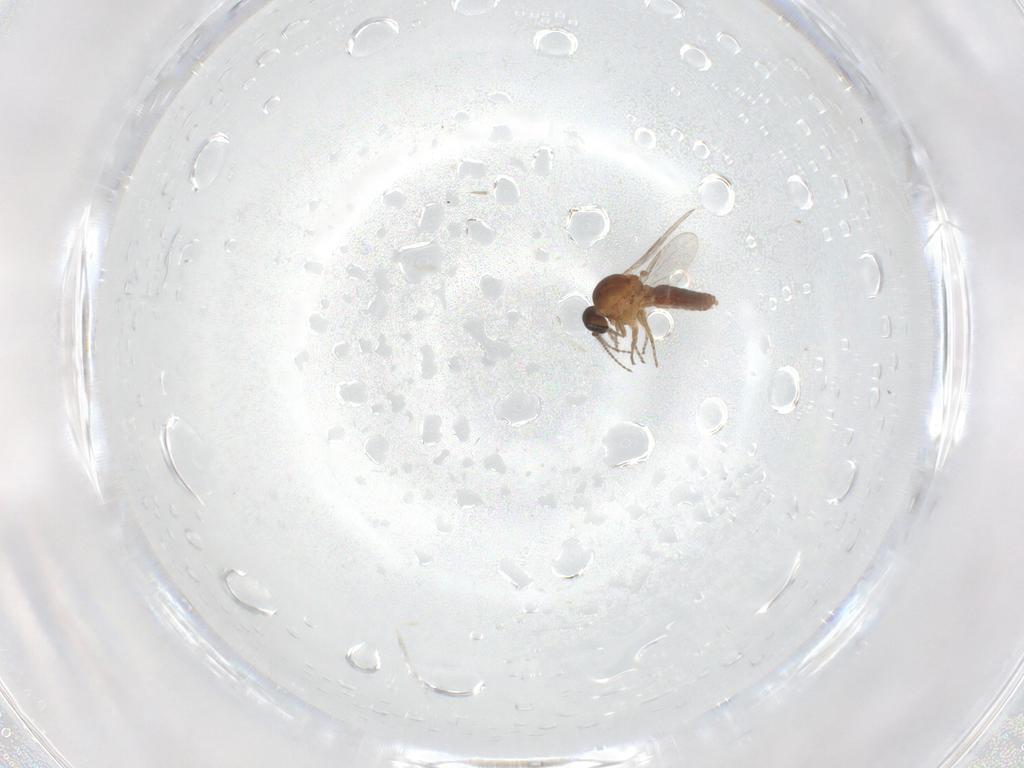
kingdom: Animalia
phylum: Arthropoda
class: Insecta
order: Diptera
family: Ceratopogonidae
